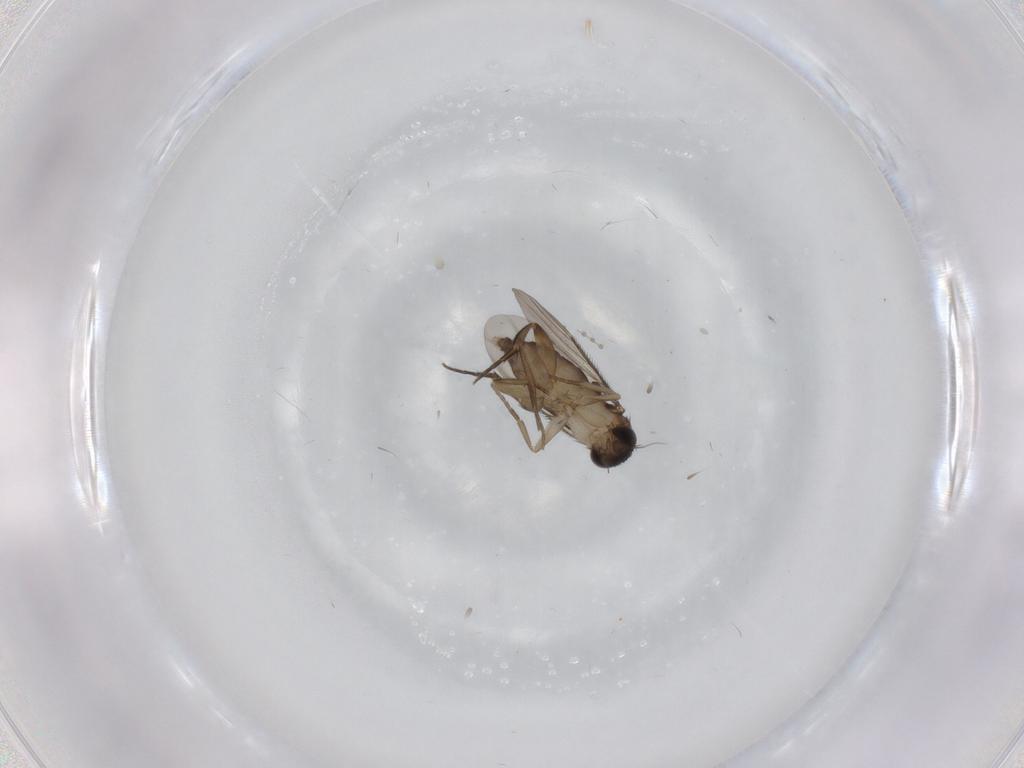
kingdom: Animalia
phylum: Arthropoda
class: Insecta
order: Diptera
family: Phoridae
